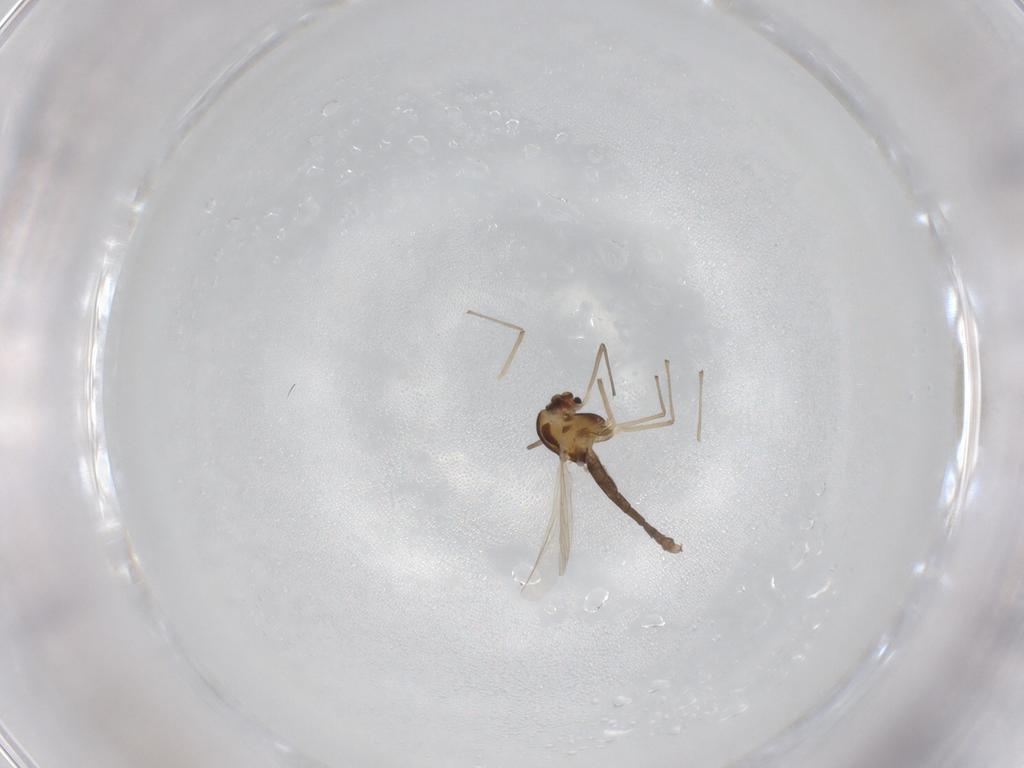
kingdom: Animalia
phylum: Arthropoda
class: Insecta
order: Diptera
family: Chironomidae
